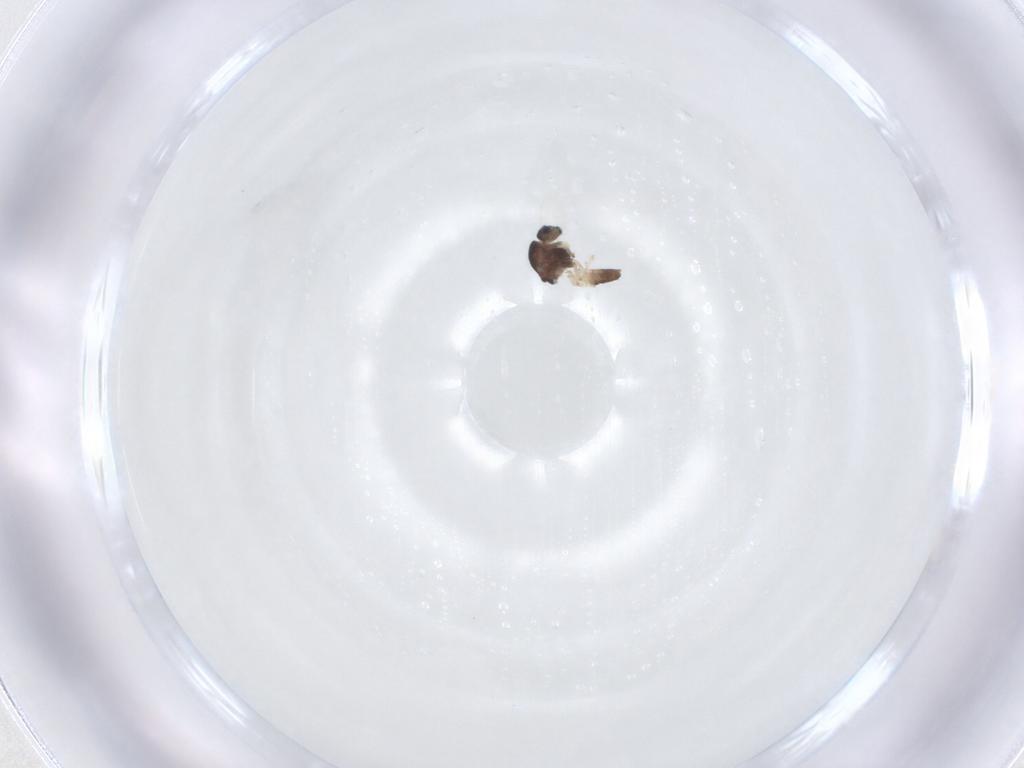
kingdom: Animalia
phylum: Arthropoda
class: Insecta
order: Diptera
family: Chironomidae
